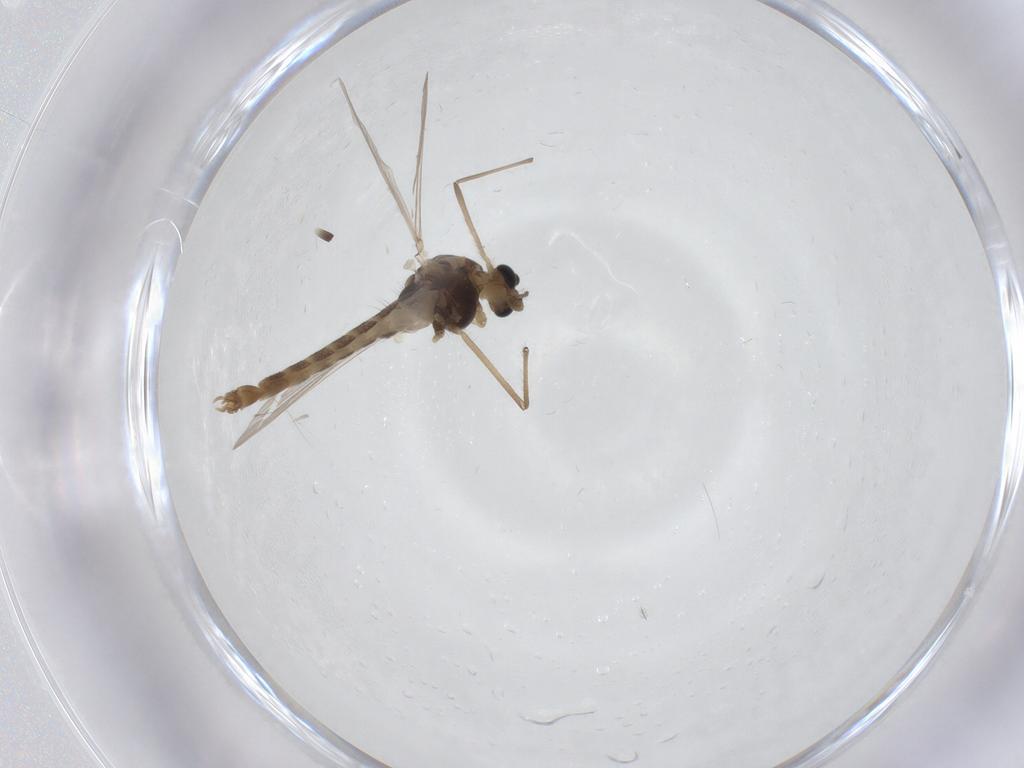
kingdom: Animalia
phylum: Arthropoda
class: Insecta
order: Diptera
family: Chironomidae
